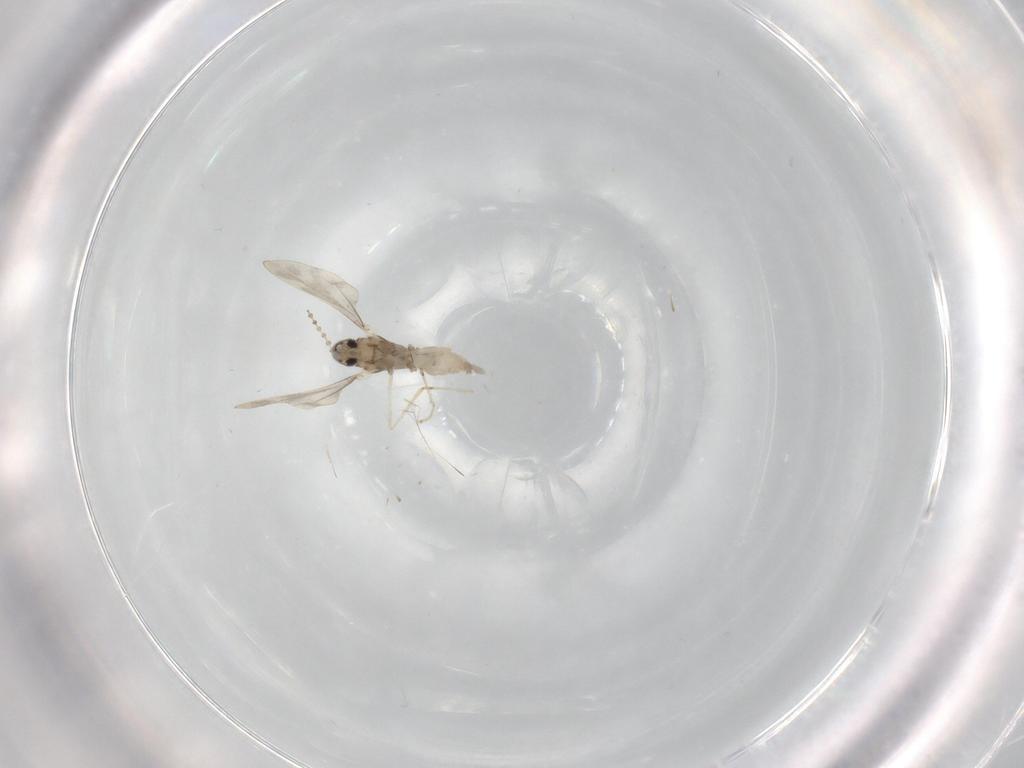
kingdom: Animalia
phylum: Arthropoda
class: Insecta
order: Diptera
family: Cecidomyiidae
